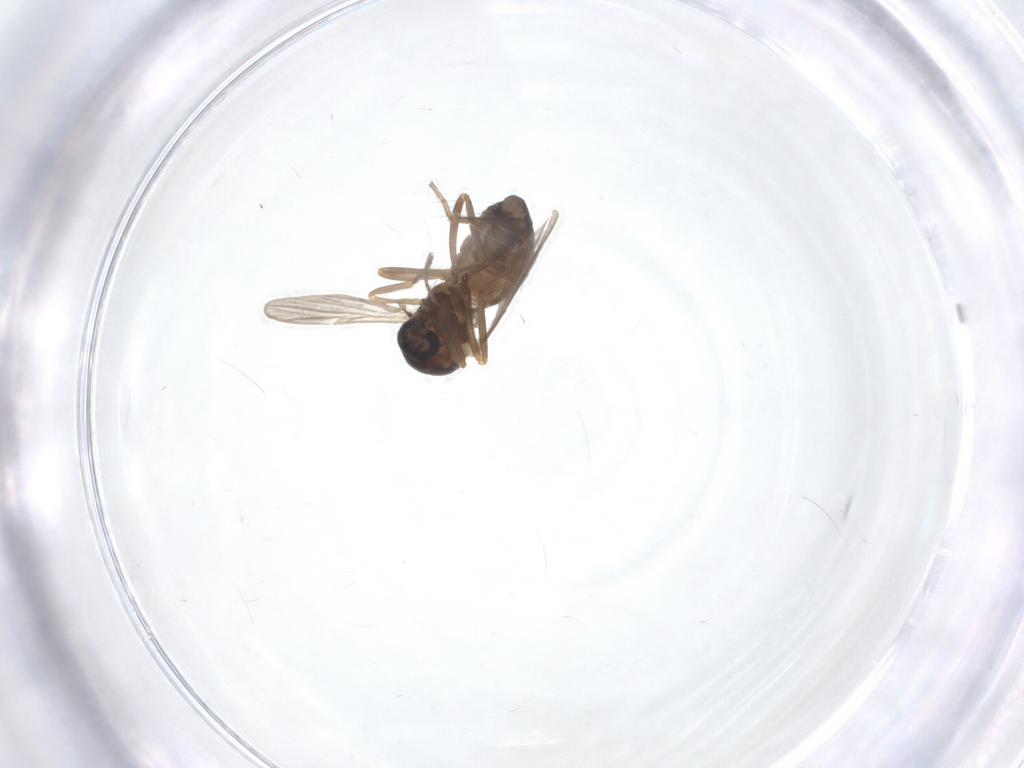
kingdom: Animalia
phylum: Arthropoda
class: Insecta
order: Diptera
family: Ceratopogonidae
